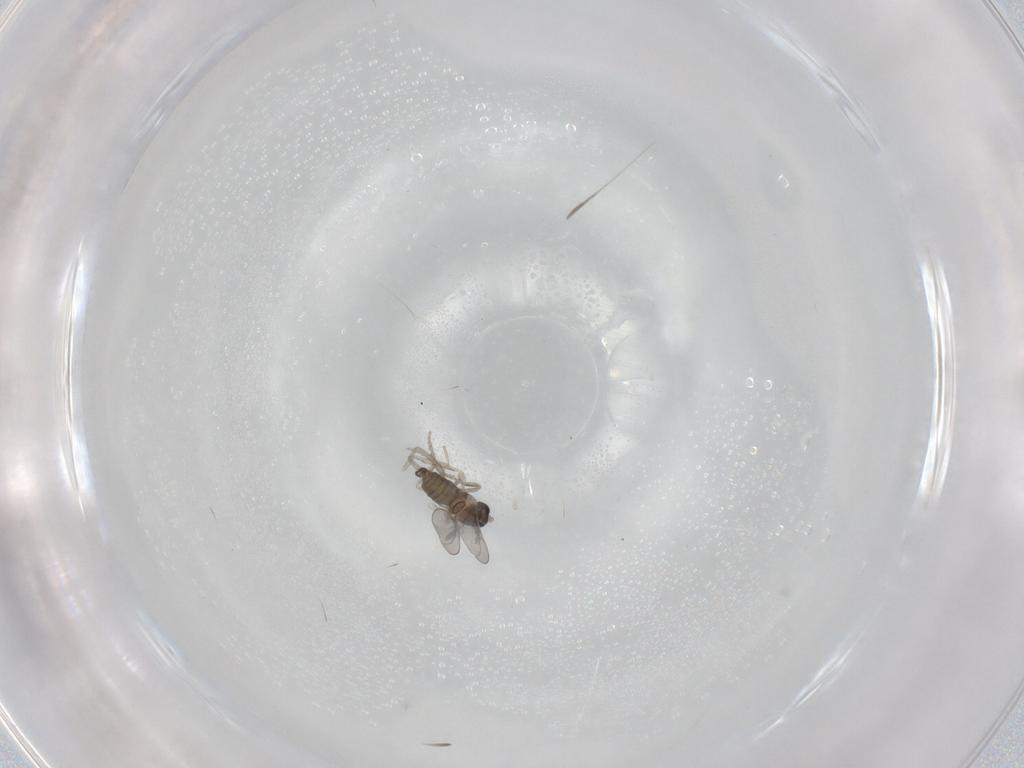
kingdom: Animalia
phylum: Arthropoda
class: Insecta
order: Diptera
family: Cecidomyiidae
